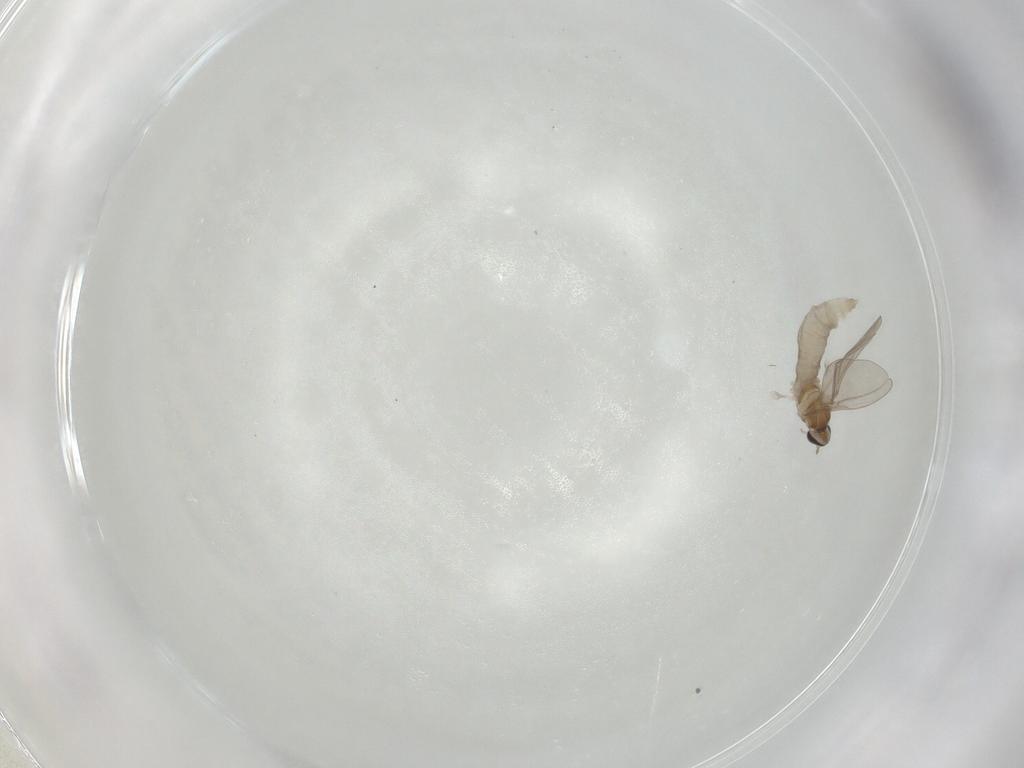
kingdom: Animalia
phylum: Arthropoda
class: Insecta
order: Diptera
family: Cecidomyiidae
